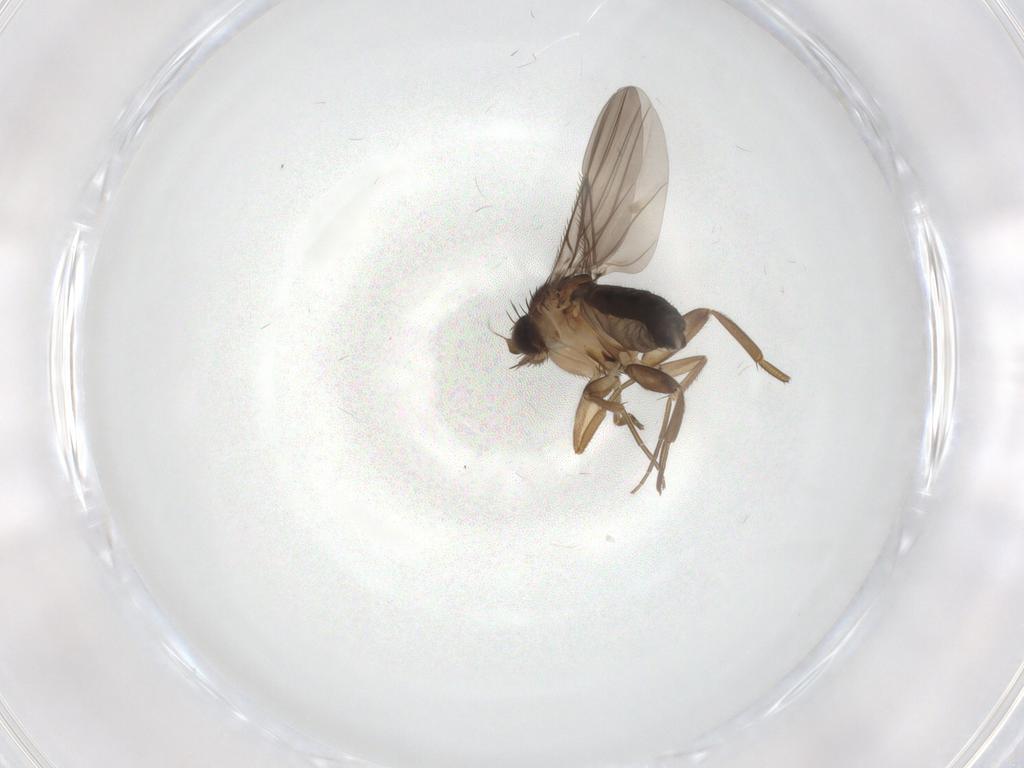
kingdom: Animalia
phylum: Arthropoda
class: Insecta
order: Diptera
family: Phoridae
